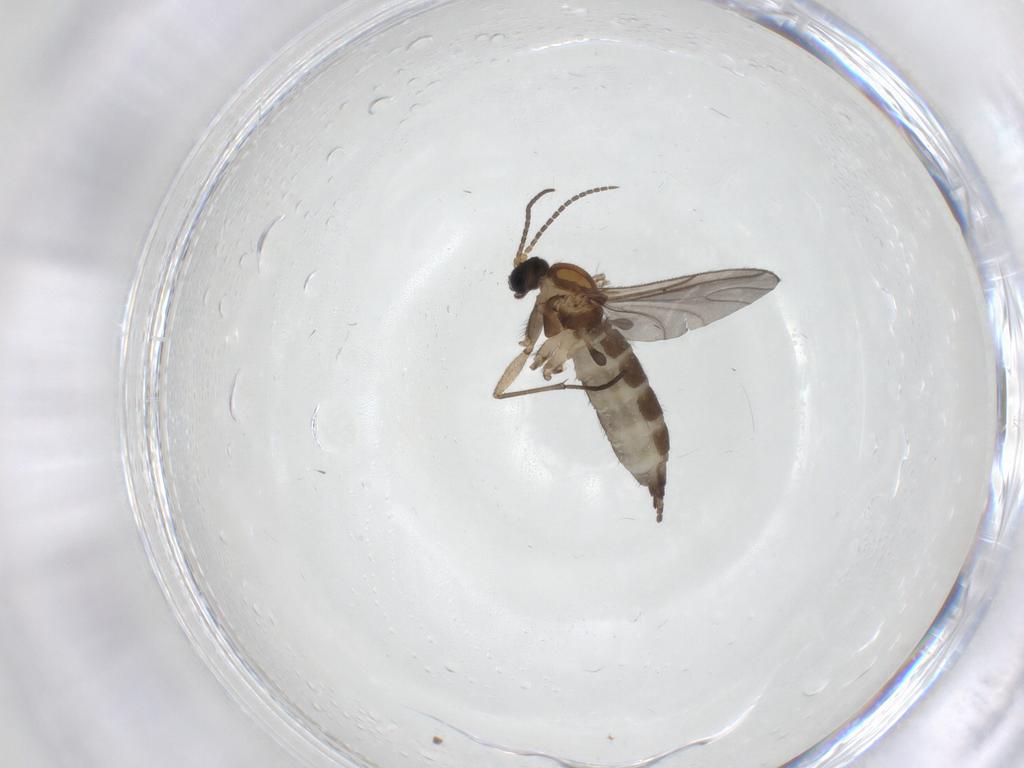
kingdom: Animalia
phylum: Arthropoda
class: Insecta
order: Diptera
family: Sciaridae
